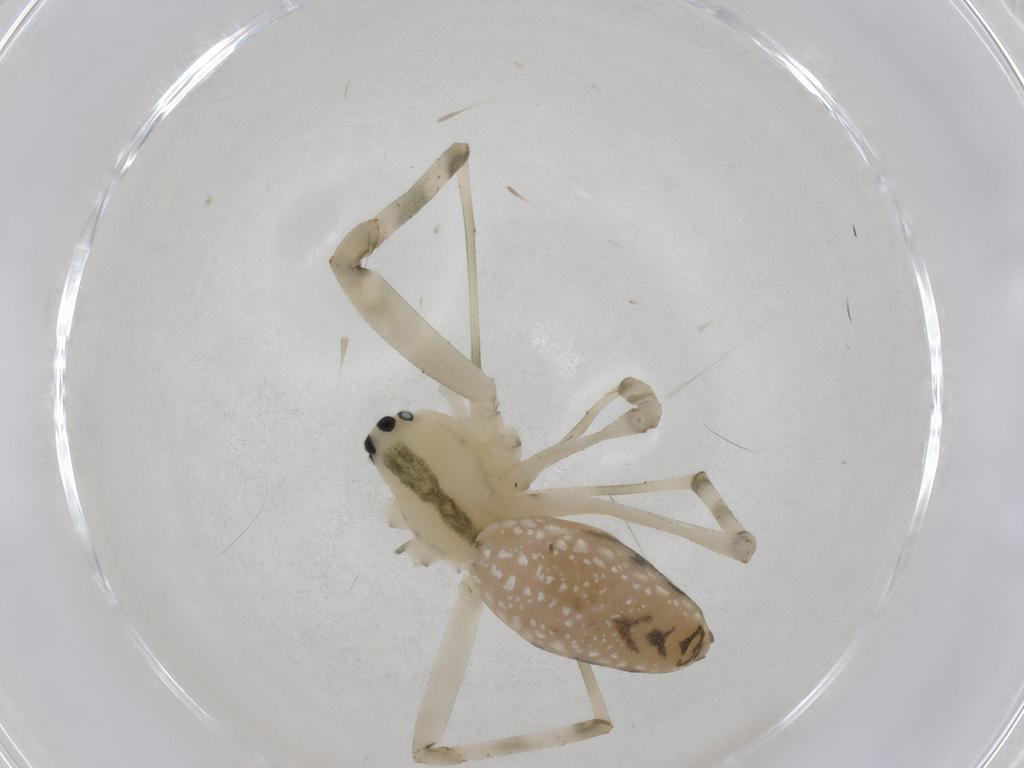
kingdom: Animalia
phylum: Arthropoda
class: Arachnida
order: Araneae
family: Linyphiidae
